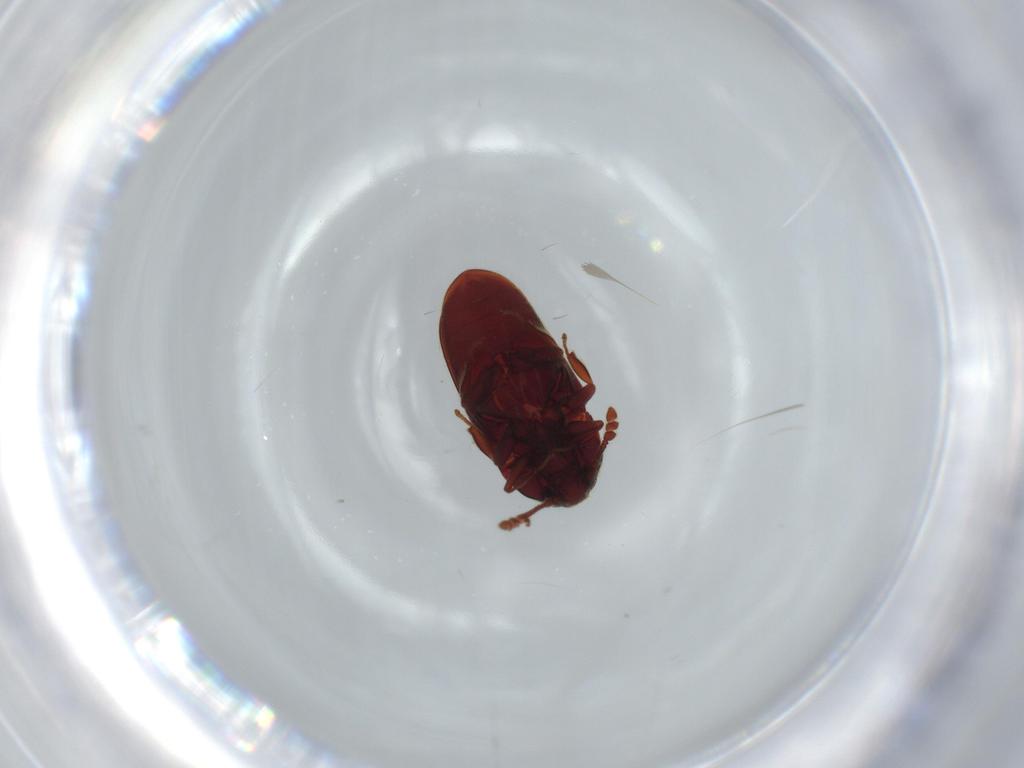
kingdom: Animalia
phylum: Arthropoda
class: Insecta
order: Coleoptera
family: Throscidae
